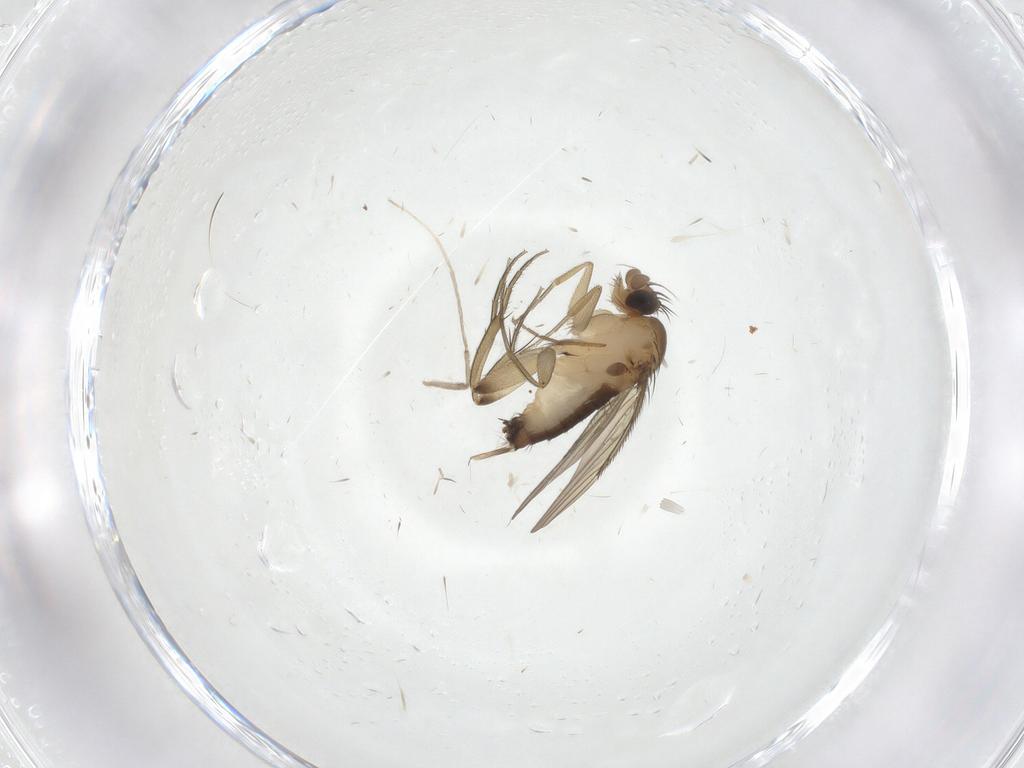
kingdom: Animalia
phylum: Arthropoda
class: Insecta
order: Diptera
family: Phoridae
